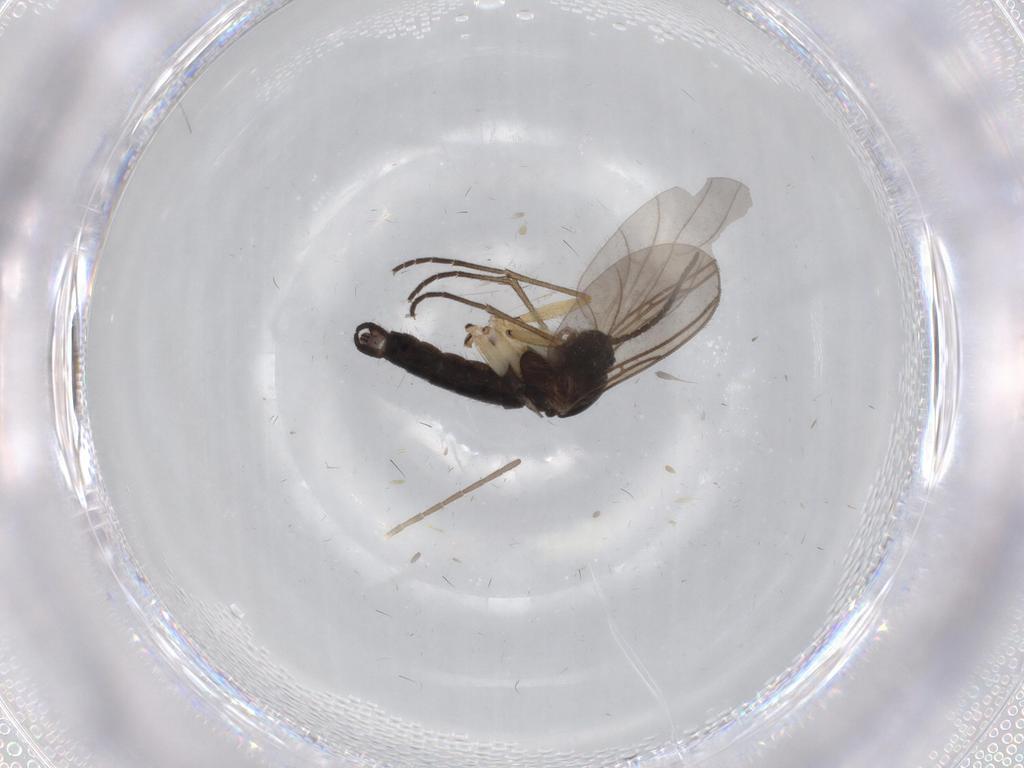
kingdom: Animalia
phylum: Arthropoda
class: Insecta
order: Diptera
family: Sciaridae
